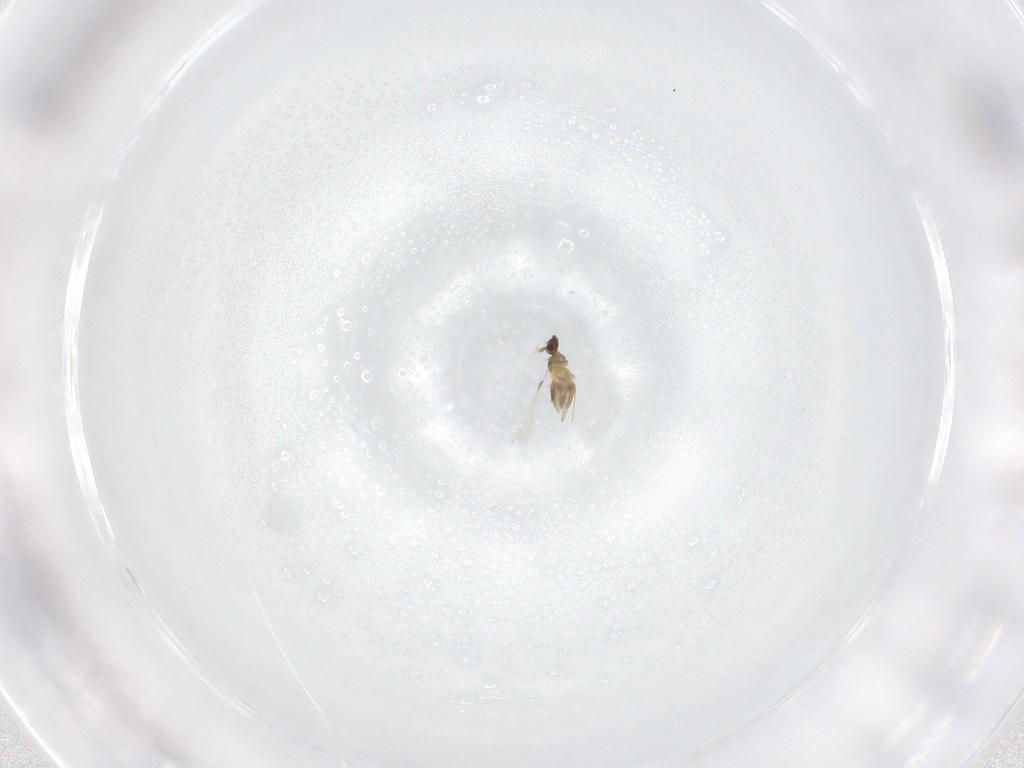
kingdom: Animalia
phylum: Arthropoda
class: Insecta
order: Hymenoptera
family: Mymaridae
